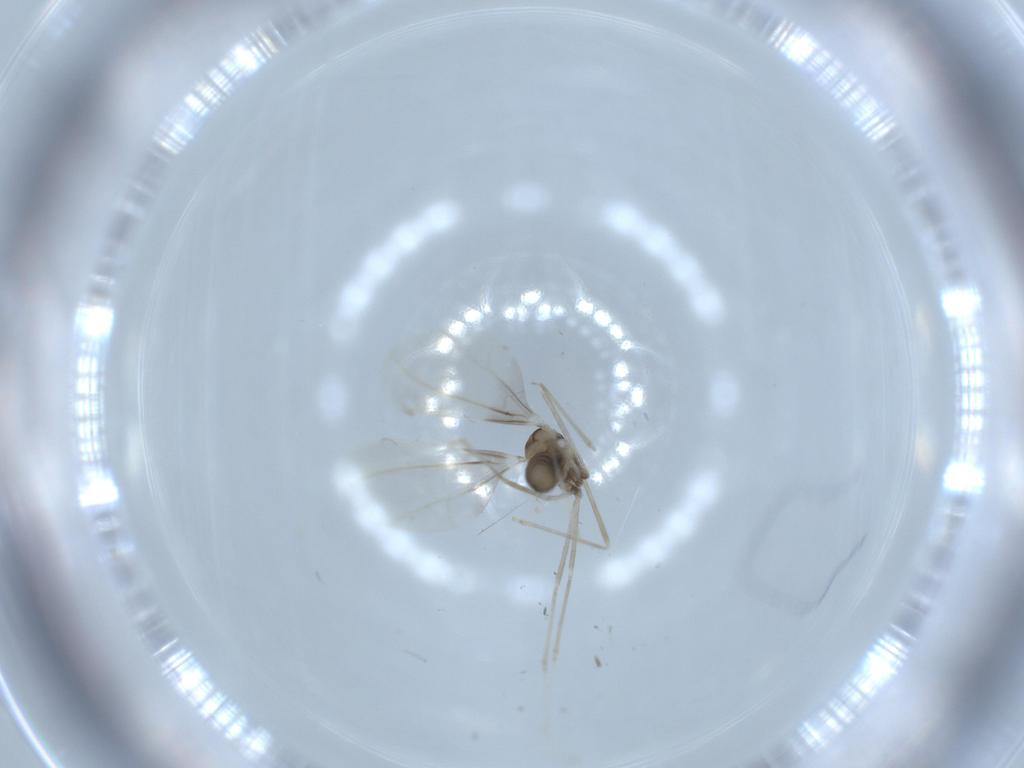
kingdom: Animalia
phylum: Arthropoda
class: Insecta
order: Diptera
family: Cecidomyiidae
